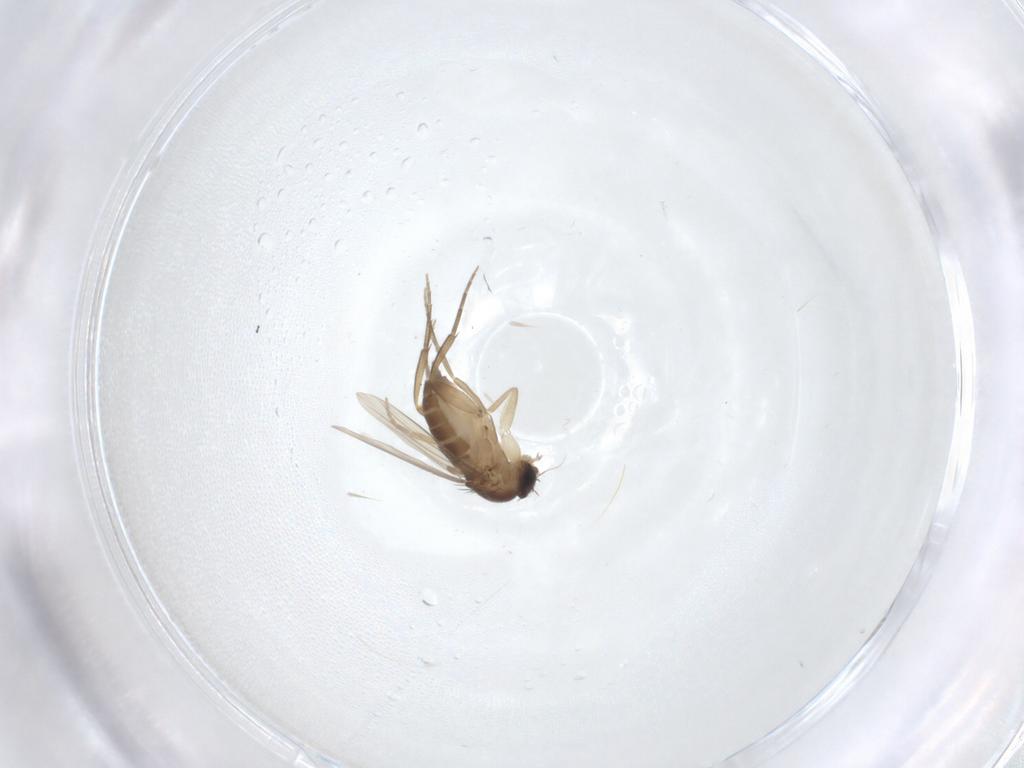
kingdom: Animalia
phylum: Arthropoda
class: Insecta
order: Diptera
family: Phoridae
